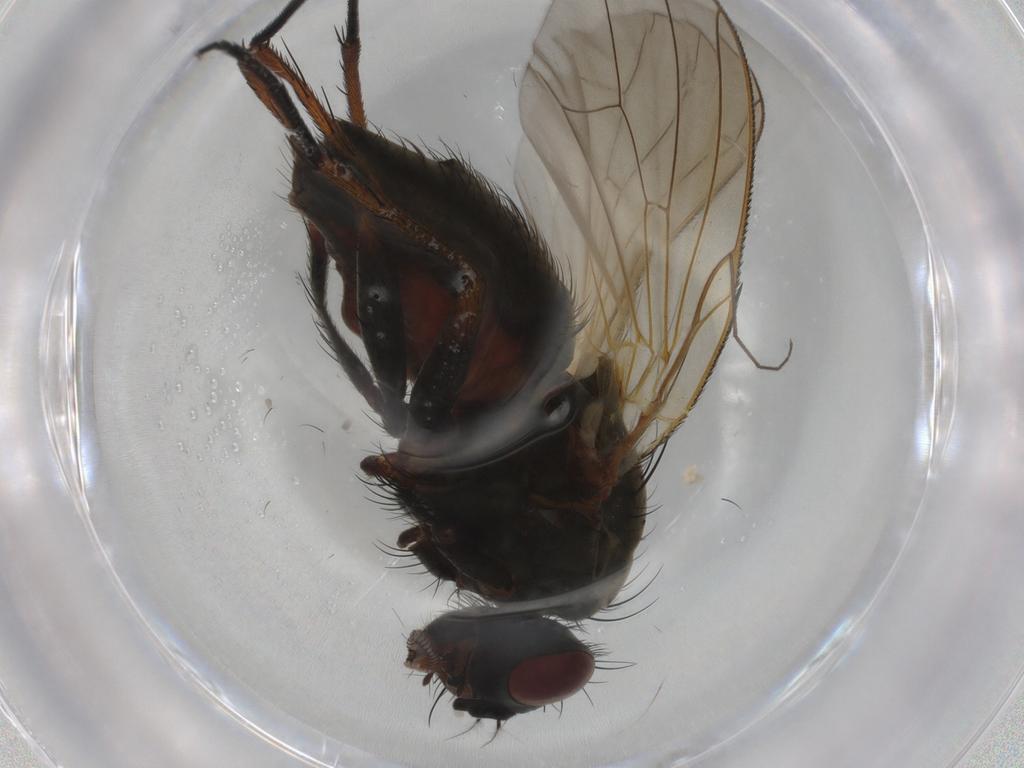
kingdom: Animalia
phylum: Arthropoda
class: Insecta
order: Diptera
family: Anthomyiidae
